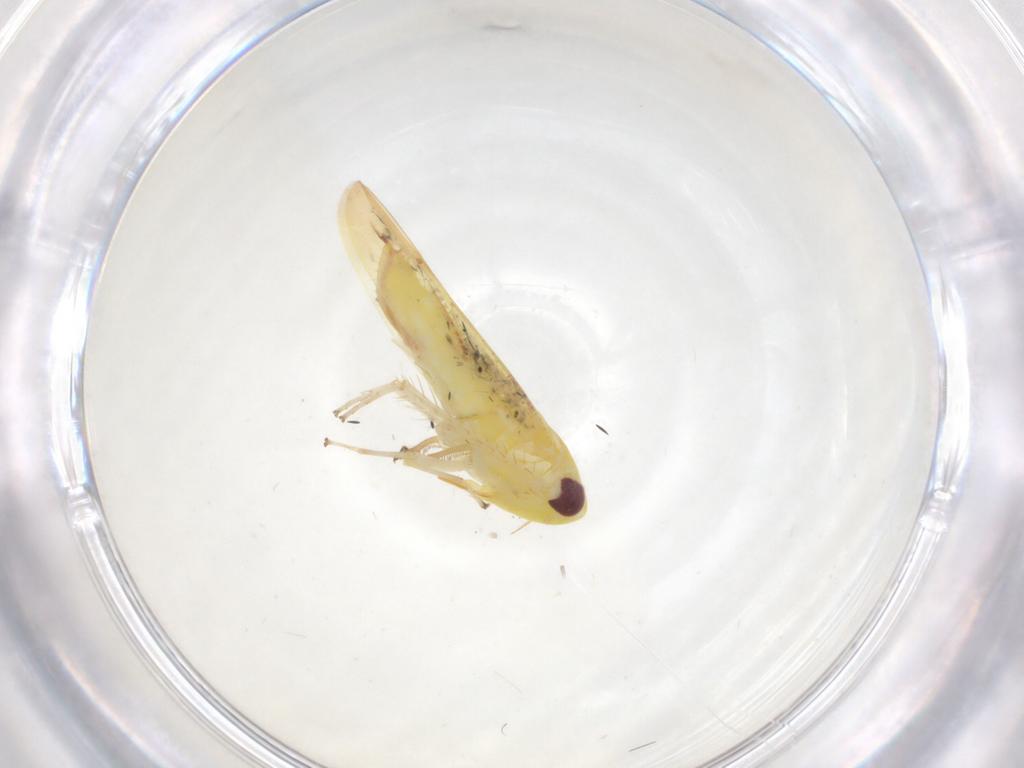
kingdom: Animalia
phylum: Arthropoda
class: Insecta
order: Hemiptera
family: Cicadellidae
